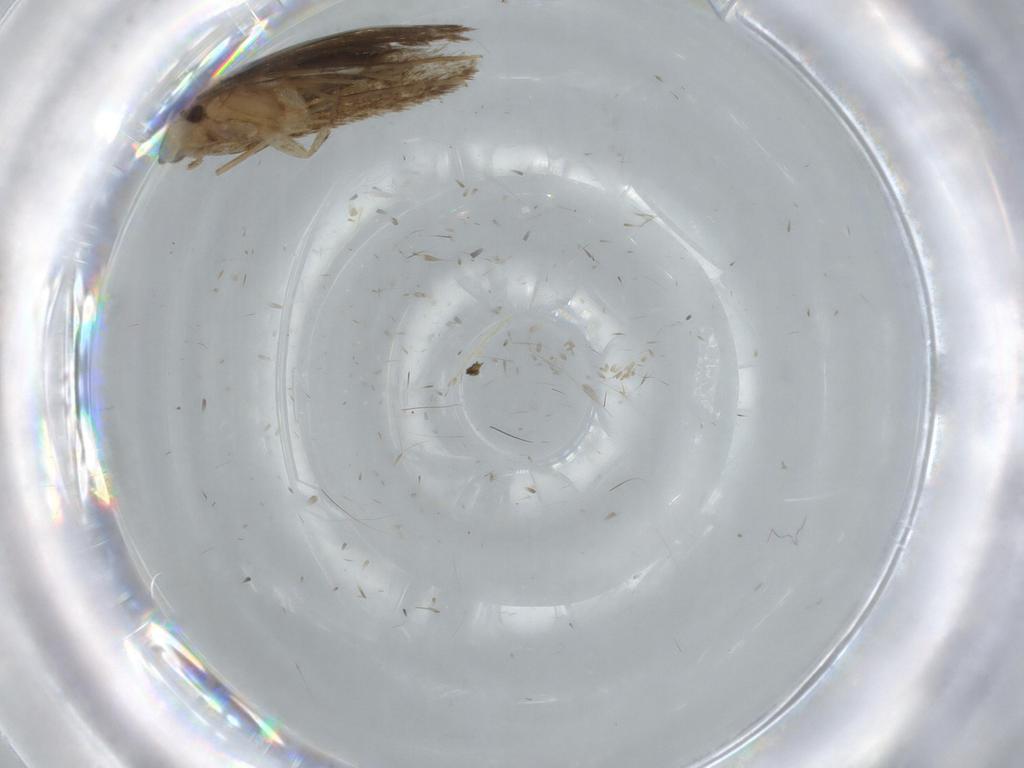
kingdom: Animalia
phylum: Arthropoda
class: Insecta
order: Lepidoptera
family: Tineidae
